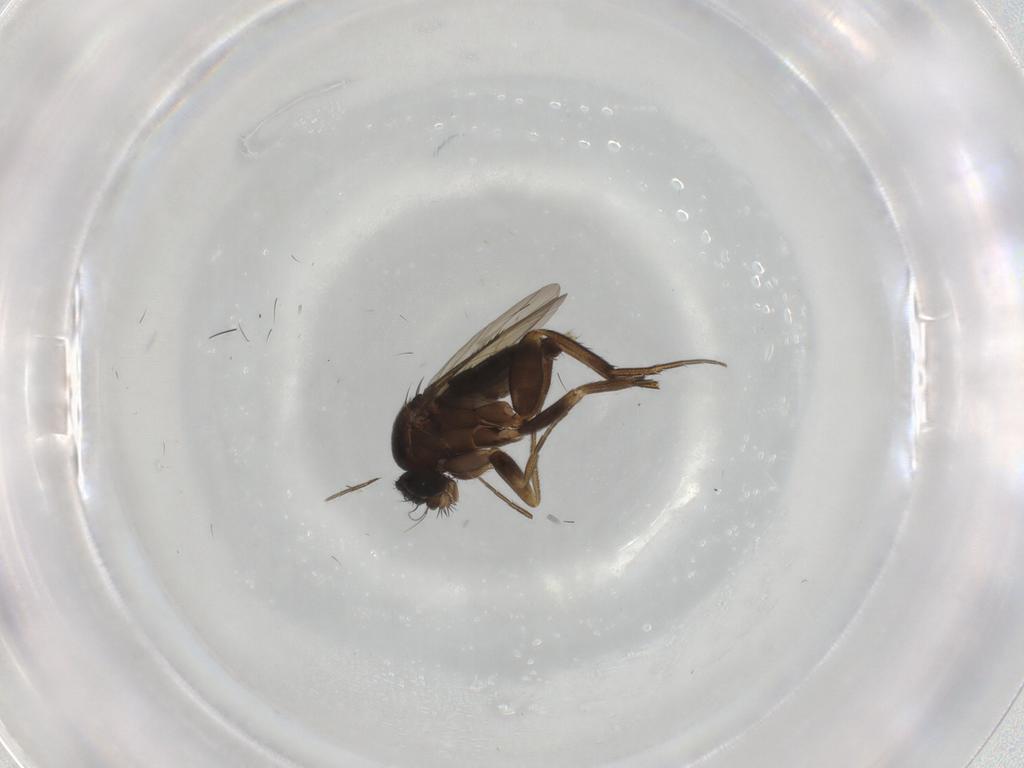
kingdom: Animalia
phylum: Arthropoda
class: Insecta
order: Diptera
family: Phoridae
